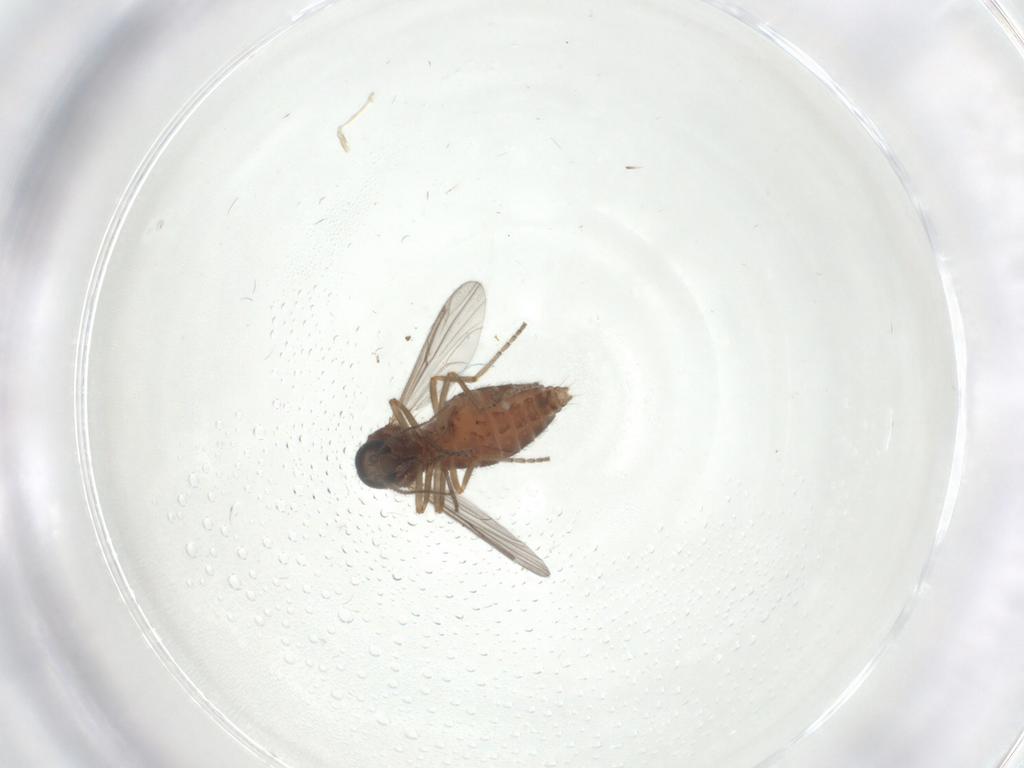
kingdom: Animalia
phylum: Arthropoda
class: Insecta
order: Diptera
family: Ceratopogonidae
